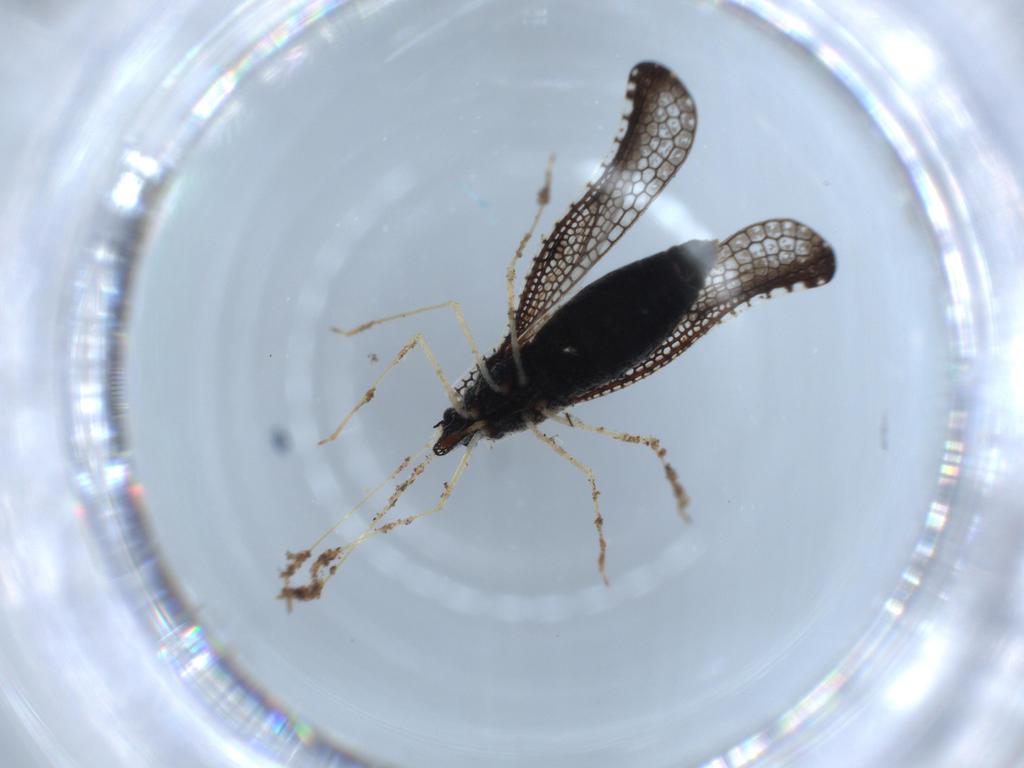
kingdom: Animalia
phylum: Arthropoda
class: Insecta
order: Hemiptera
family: Tingidae
